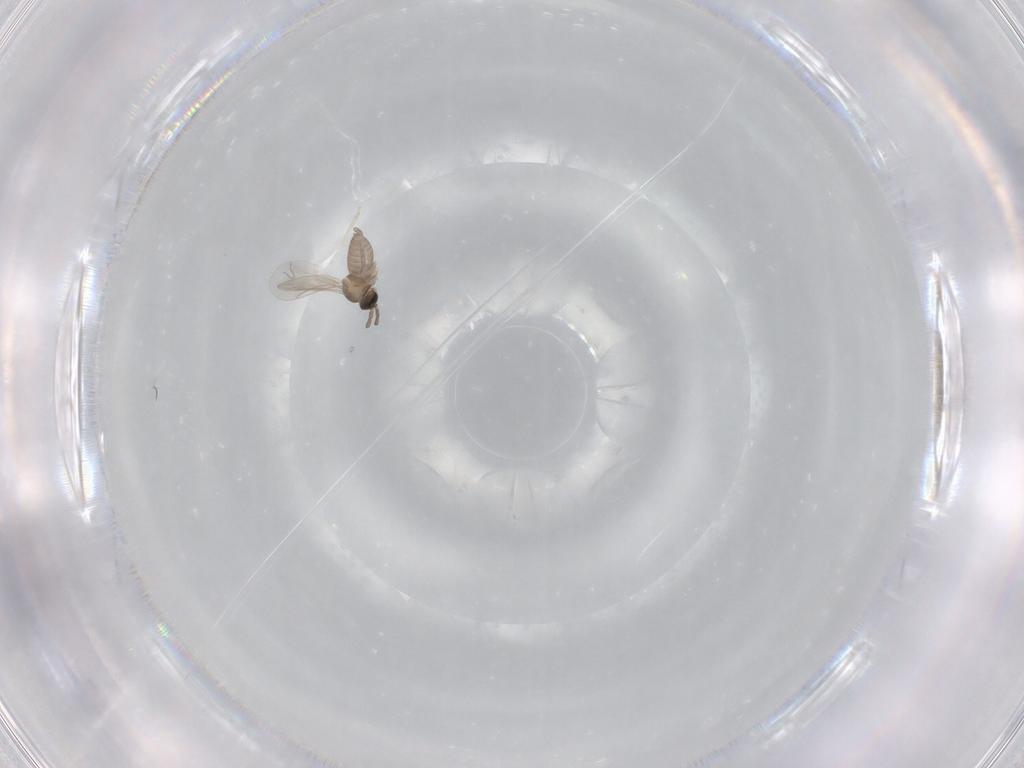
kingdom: Animalia
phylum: Arthropoda
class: Insecta
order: Diptera
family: Cecidomyiidae
